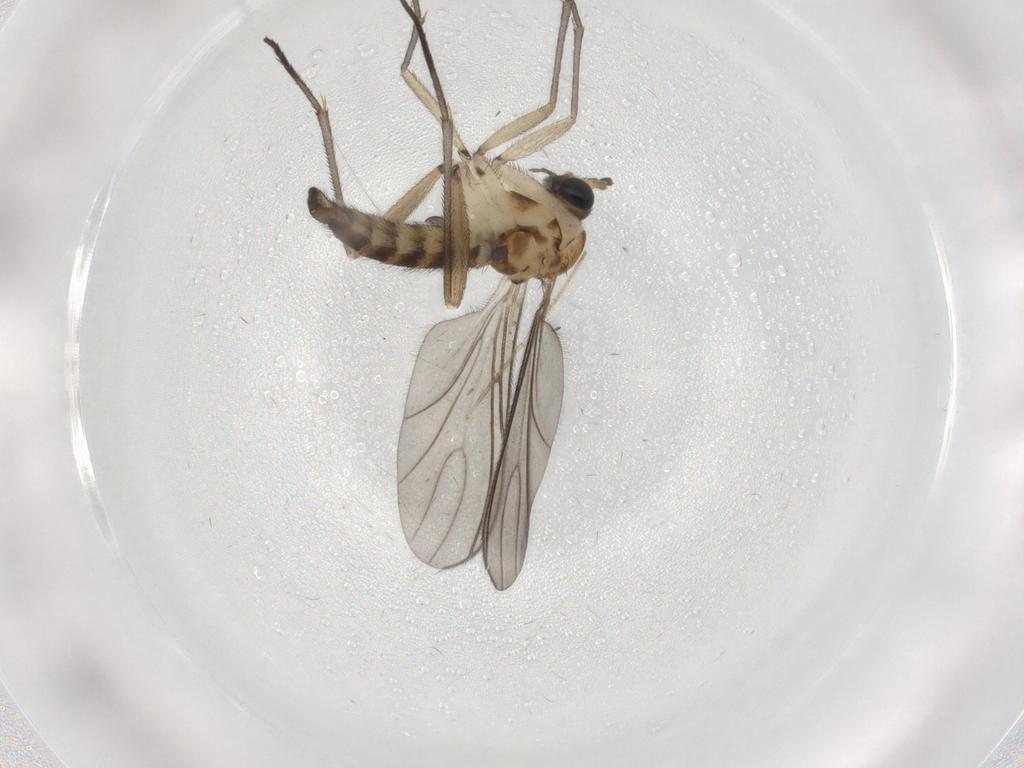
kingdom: Animalia
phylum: Arthropoda
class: Insecta
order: Diptera
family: Sciaridae
